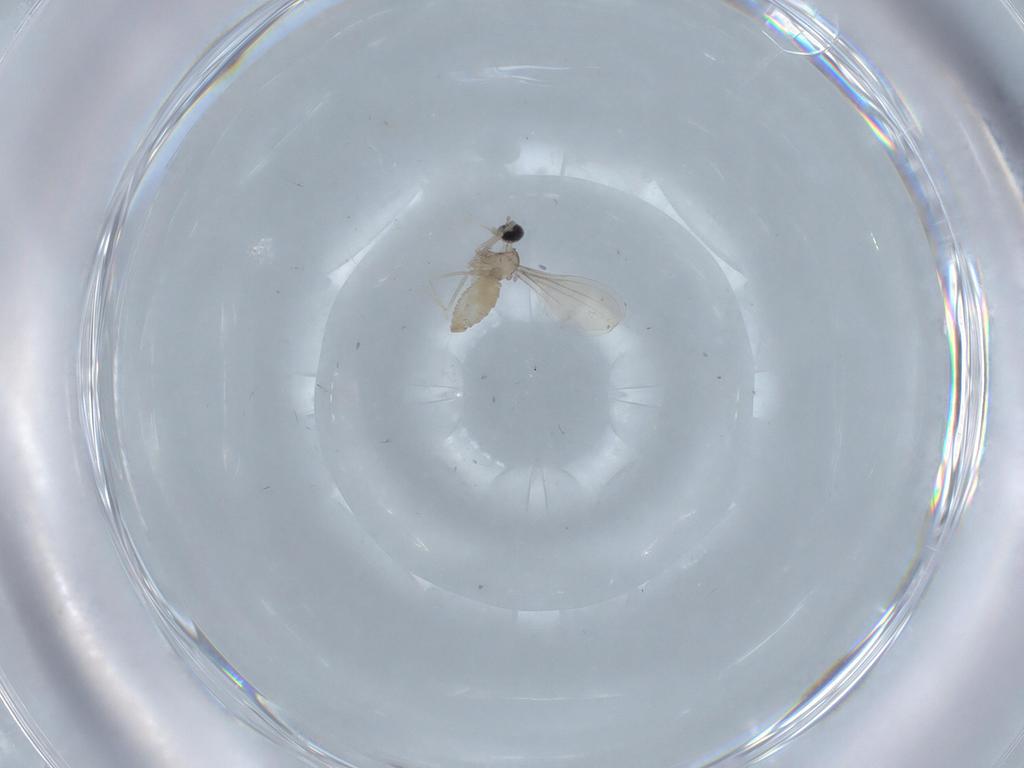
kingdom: Animalia
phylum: Arthropoda
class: Insecta
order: Diptera
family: Cecidomyiidae
